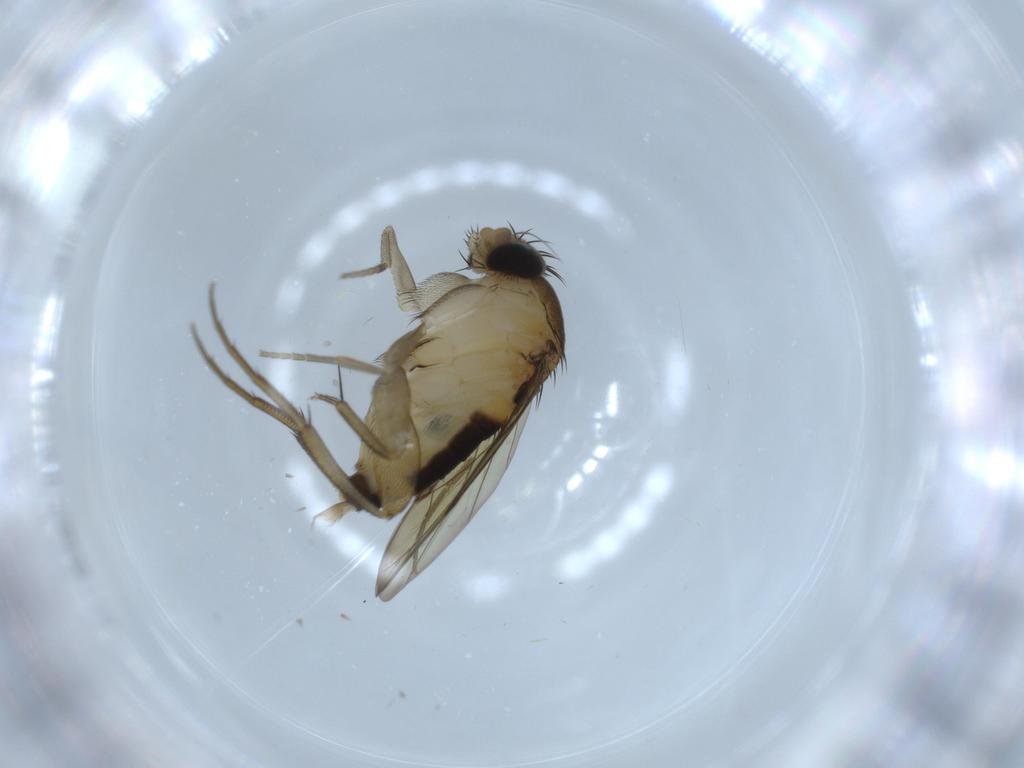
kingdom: Animalia
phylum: Arthropoda
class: Insecta
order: Diptera
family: Phoridae
